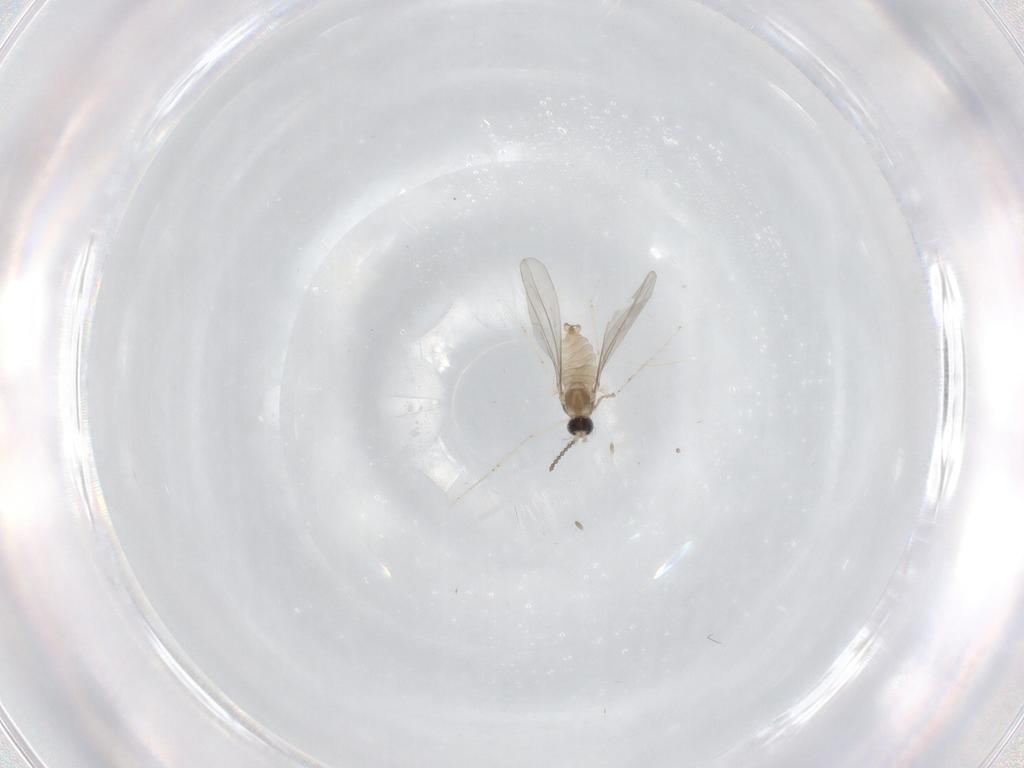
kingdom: Animalia
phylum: Arthropoda
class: Insecta
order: Diptera
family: Cecidomyiidae
